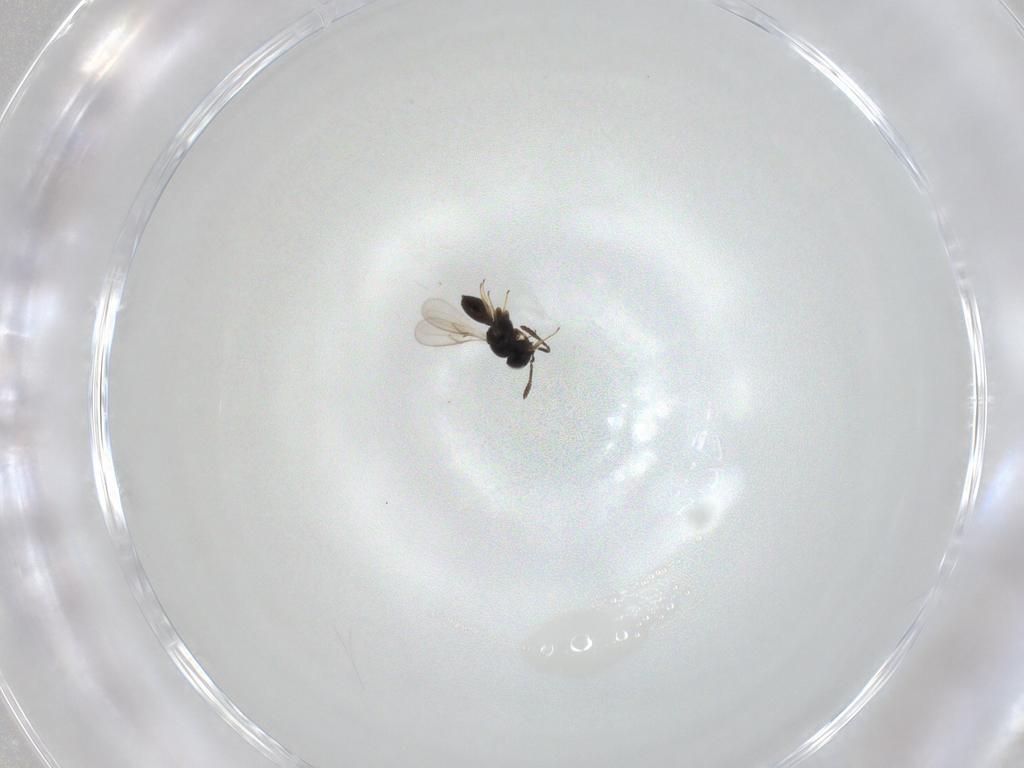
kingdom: Animalia
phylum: Arthropoda
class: Insecta
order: Hymenoptera
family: Scelionidae
